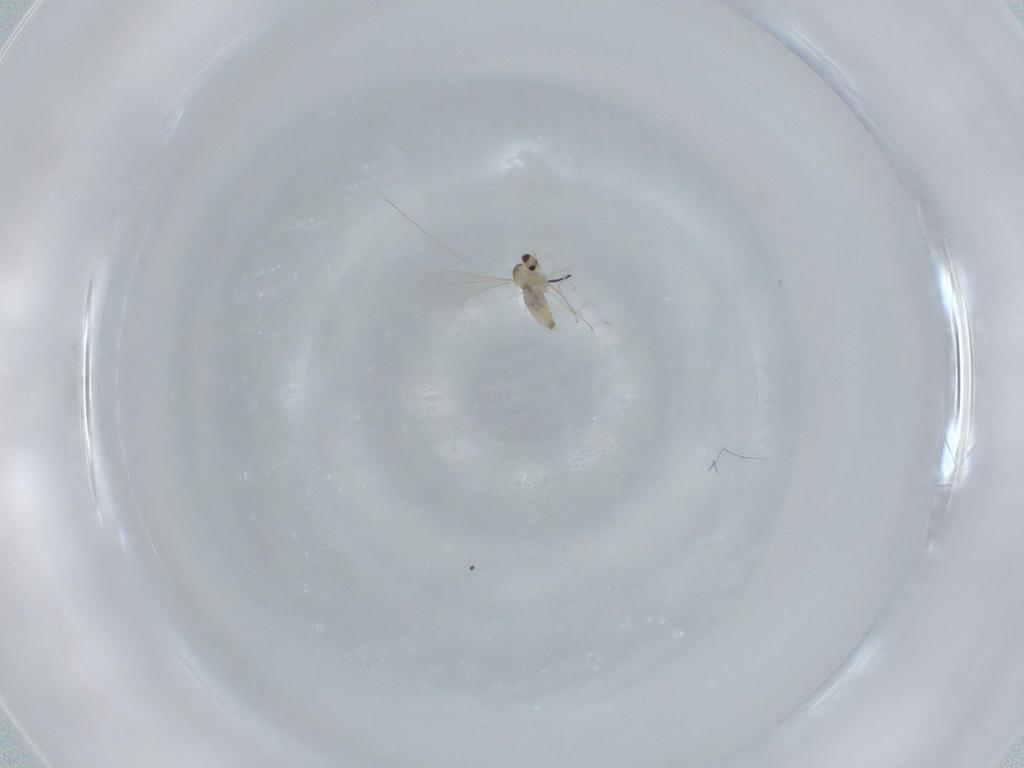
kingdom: Animalia
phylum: Arthropoda
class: Insecta
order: Diptera
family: Cecidomyiidae
